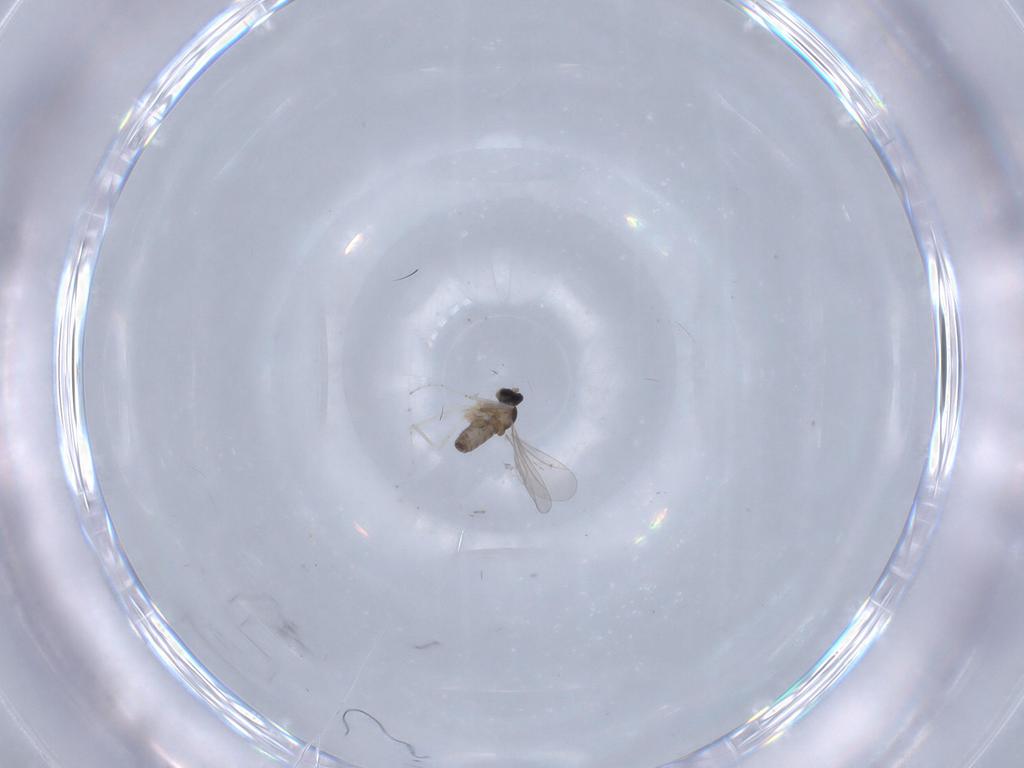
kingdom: Animalia
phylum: Arthropoda
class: Insecta
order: Diptera
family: Cecidomyiidae
